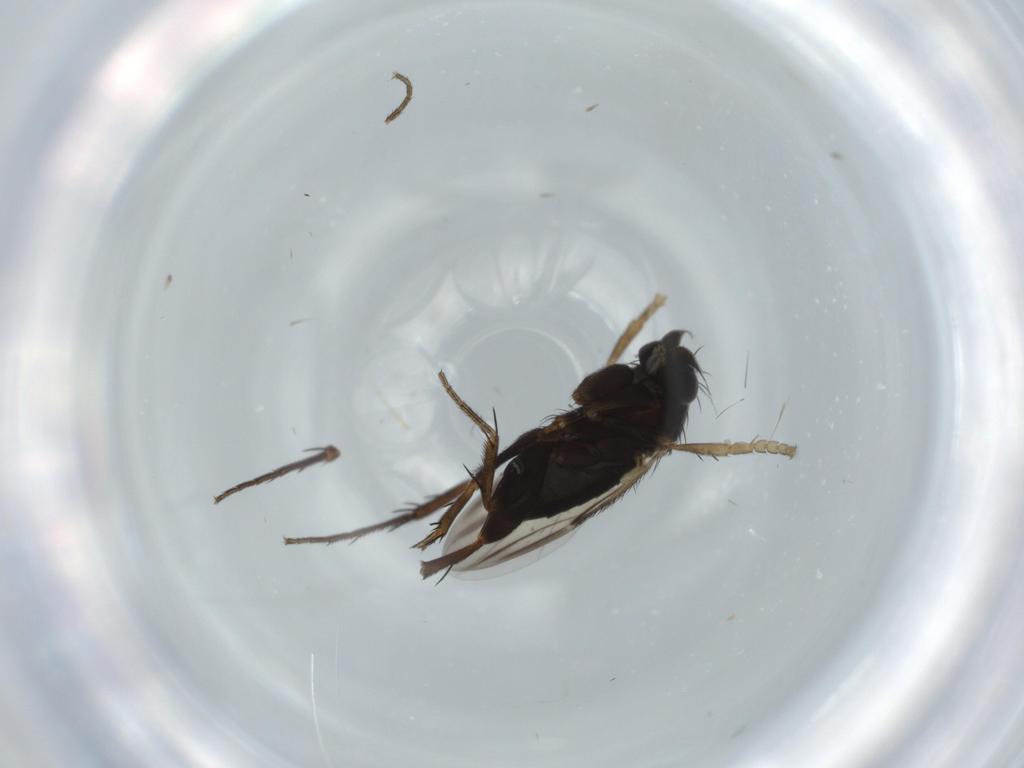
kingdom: Animalia
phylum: Arthropoda
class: Insecta
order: Diptera
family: Phoridae
